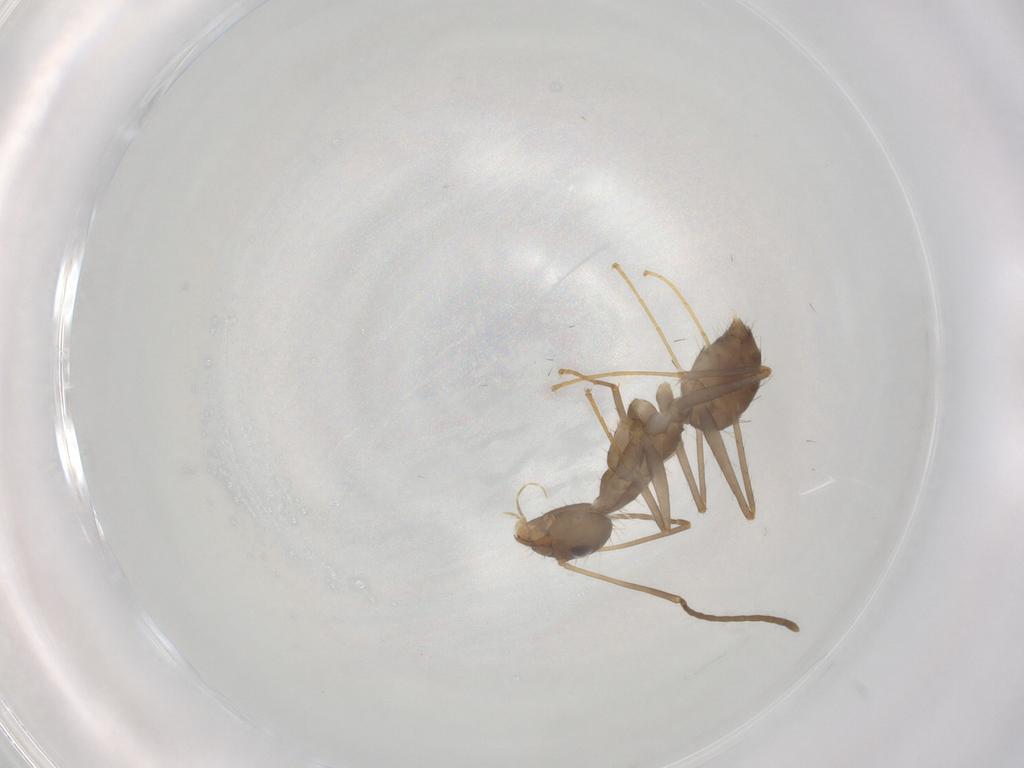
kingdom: Animalia
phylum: Arthropoda
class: Insecta
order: Hymenoptera
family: Formicidae
